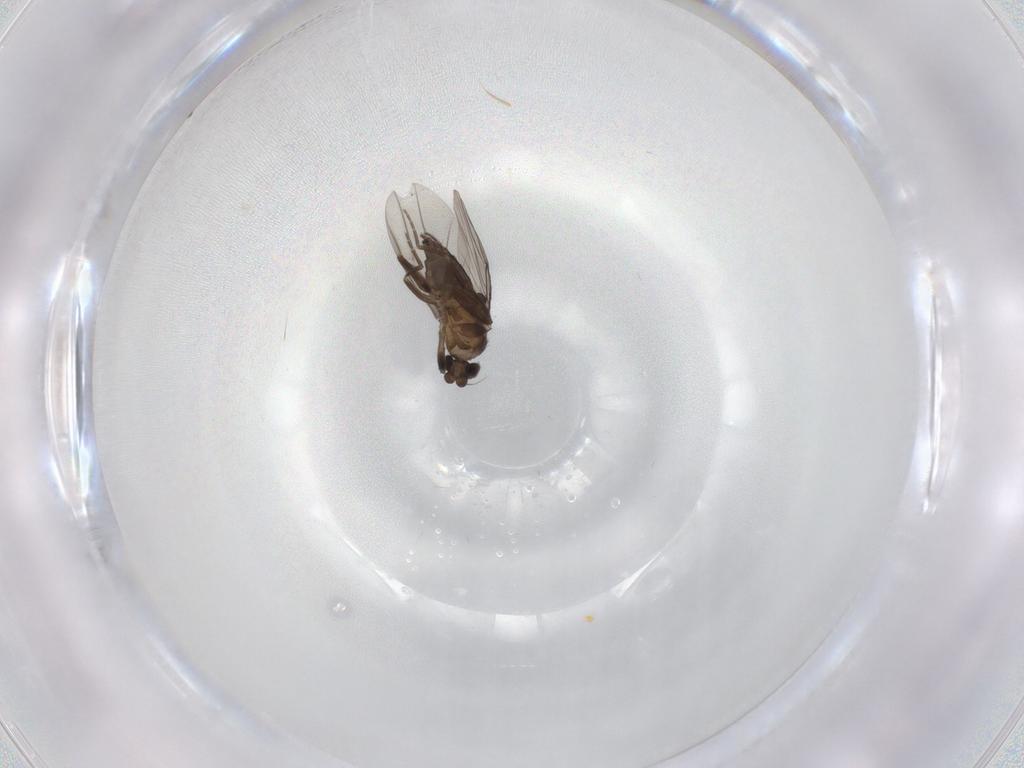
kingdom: Animalia
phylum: Arthropoda
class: Insecta
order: Diptera
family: Phoridae
